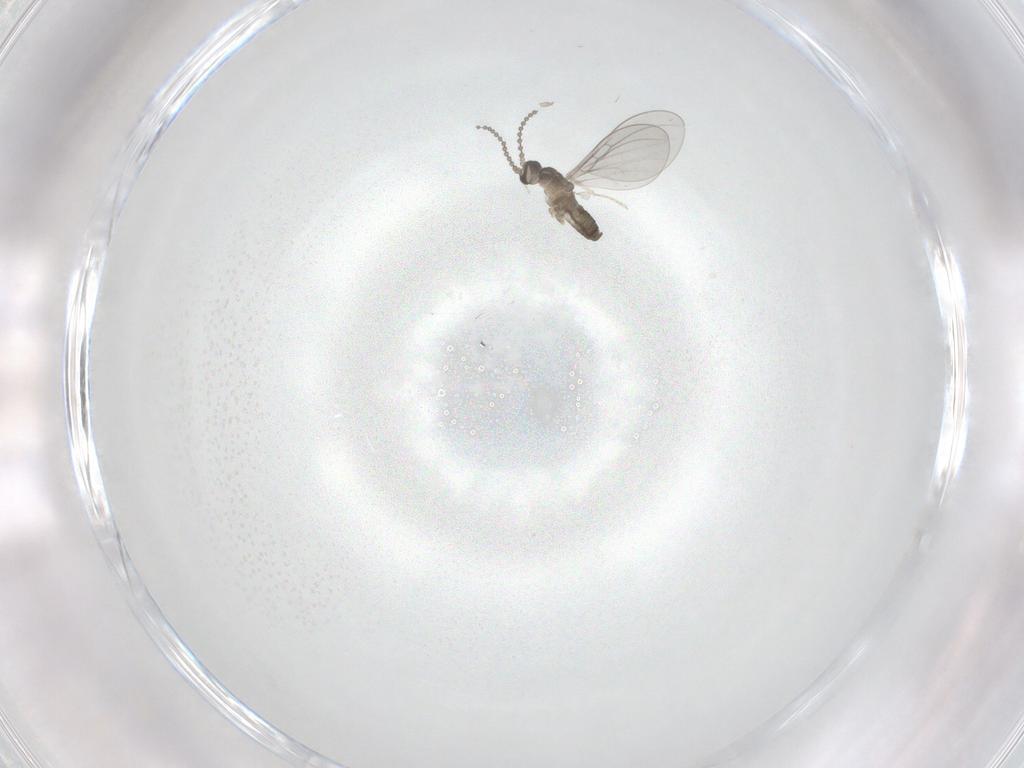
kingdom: Animalia
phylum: Arthropoda
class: Insecta
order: Diptera
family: Cecidomyiidae
